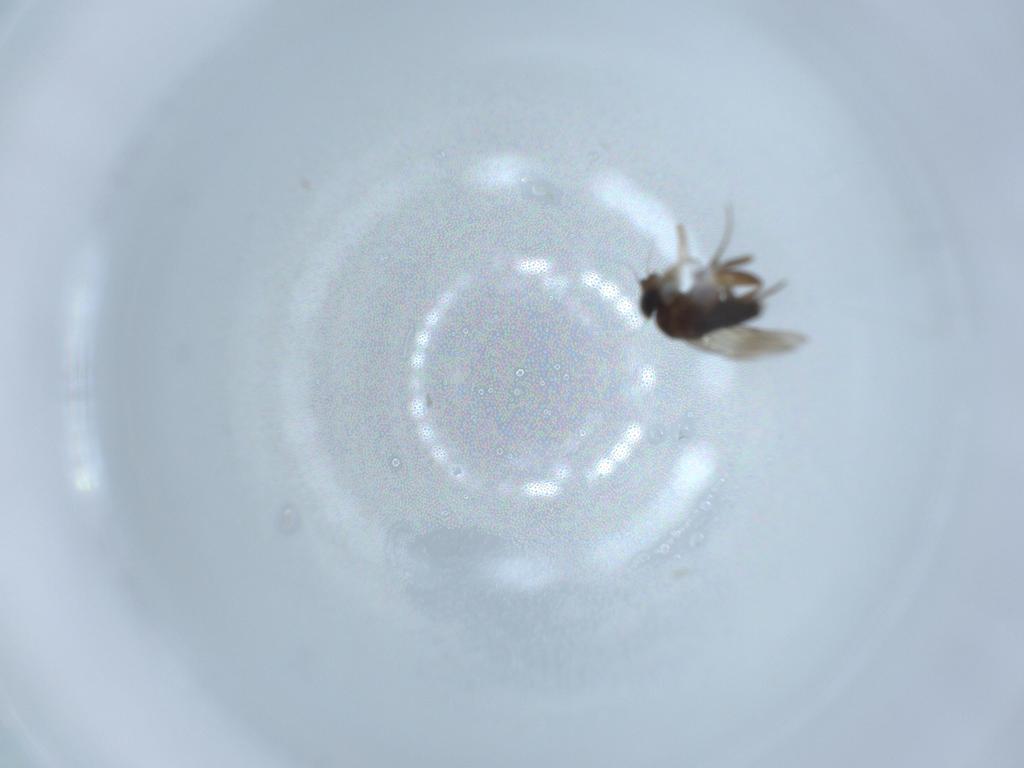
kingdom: Animalia
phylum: Arthropoda
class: Insecta
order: Diptera
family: Phoridae
